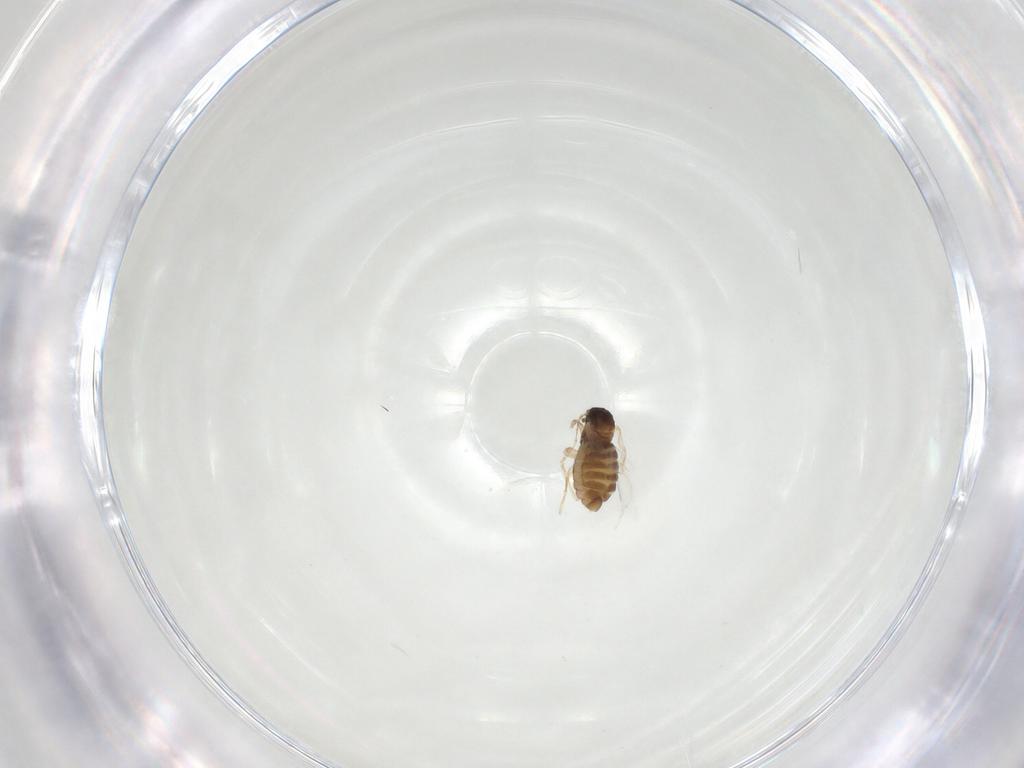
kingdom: Animalia
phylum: Arthropoda
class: Insecta
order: Diptera
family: Cecidomyiidae
